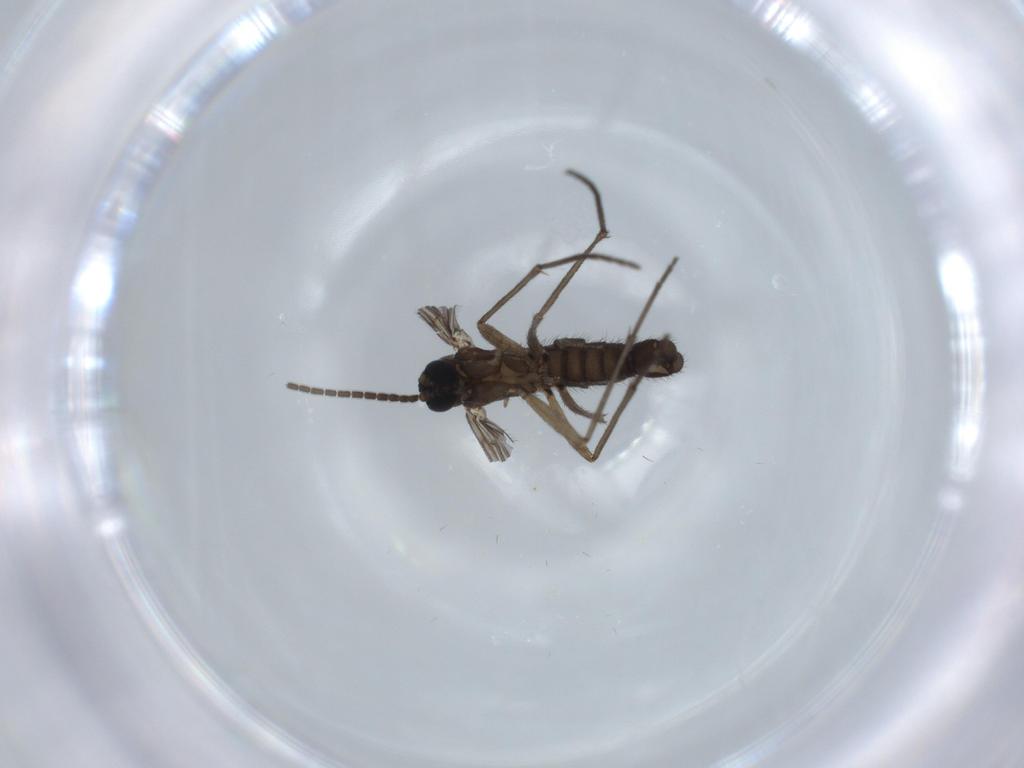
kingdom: Animalia
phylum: Arthropoda
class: Insecta
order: Diptera
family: Sciaridae
